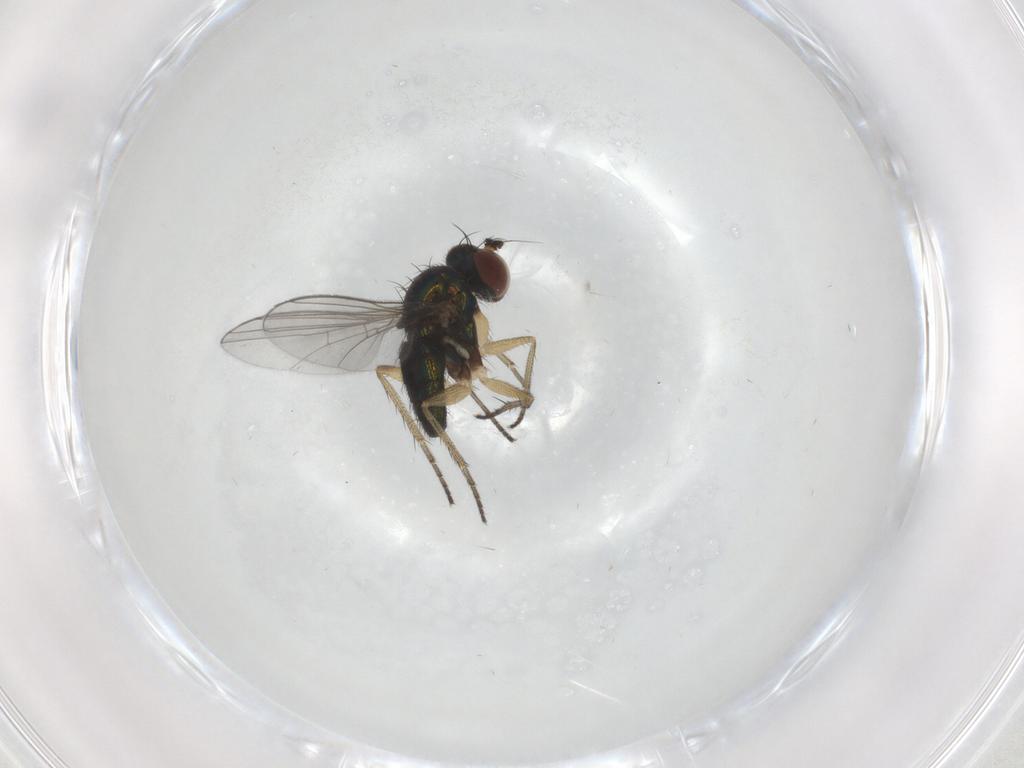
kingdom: Animalia
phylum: Arthropoda
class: Insecta
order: Diptera
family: Dolichopodidae
